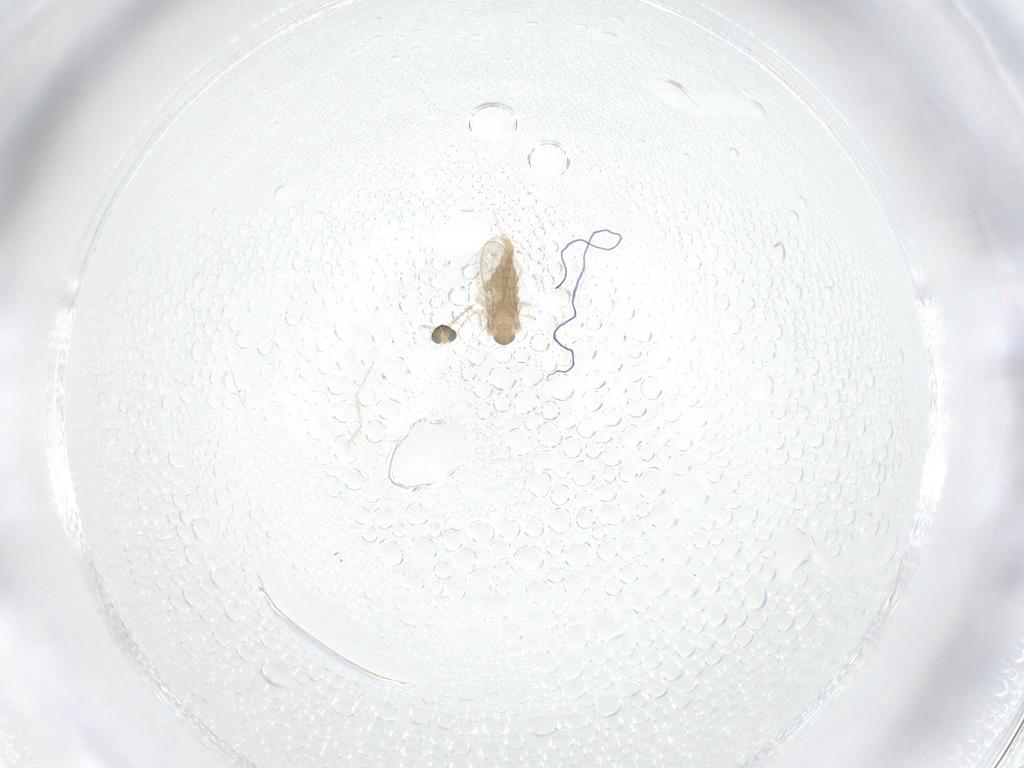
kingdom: Animalia
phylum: Arthropoda
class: Insecta
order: Diptera
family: Cecidomyiidae
